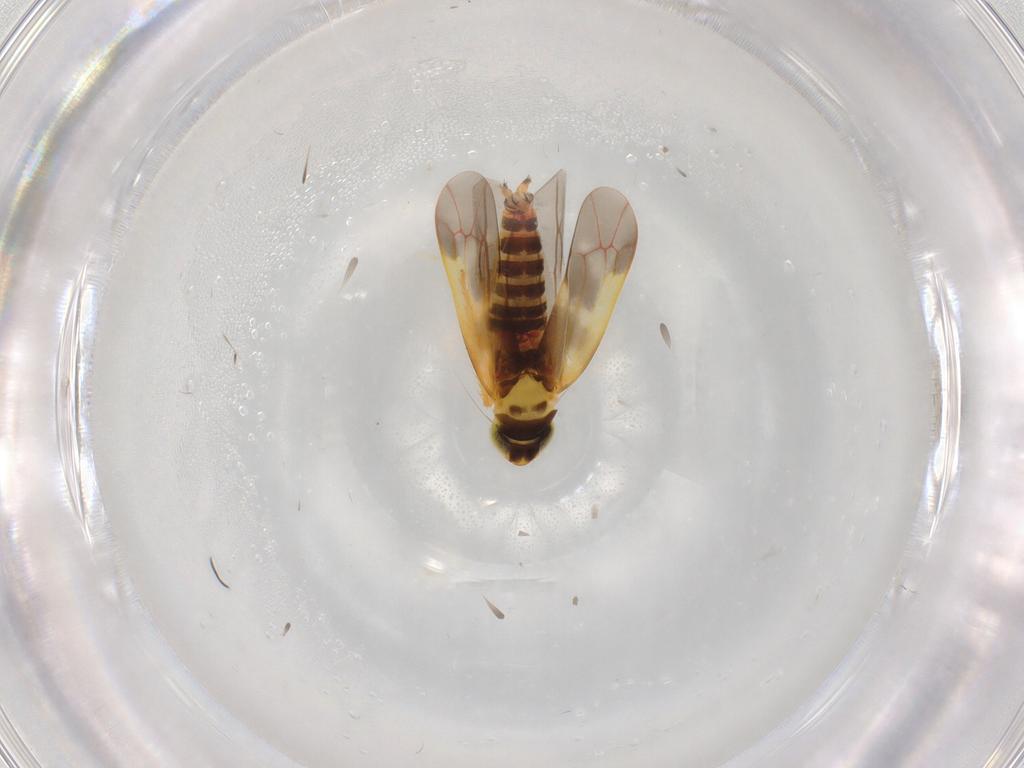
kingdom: Animalia
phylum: Arthropoda
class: Insecta
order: Hemiptera
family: Cicadellidae
